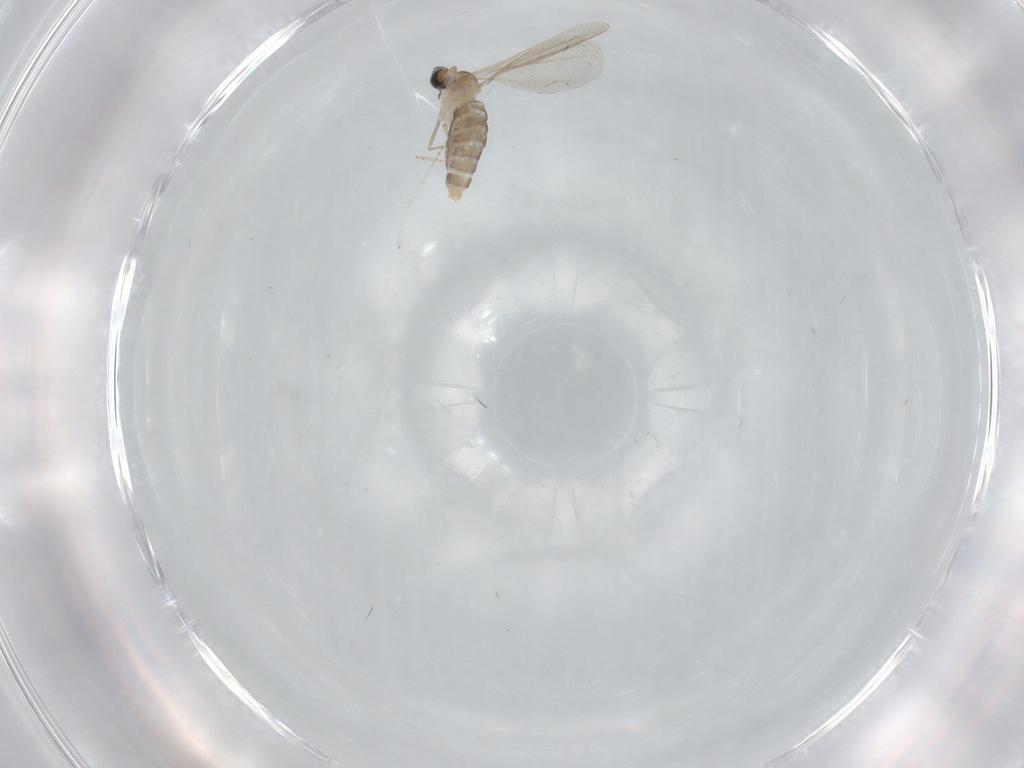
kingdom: Animalia
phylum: Arthropoda
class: Insecta
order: Diptera
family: Cecidomyiidae
